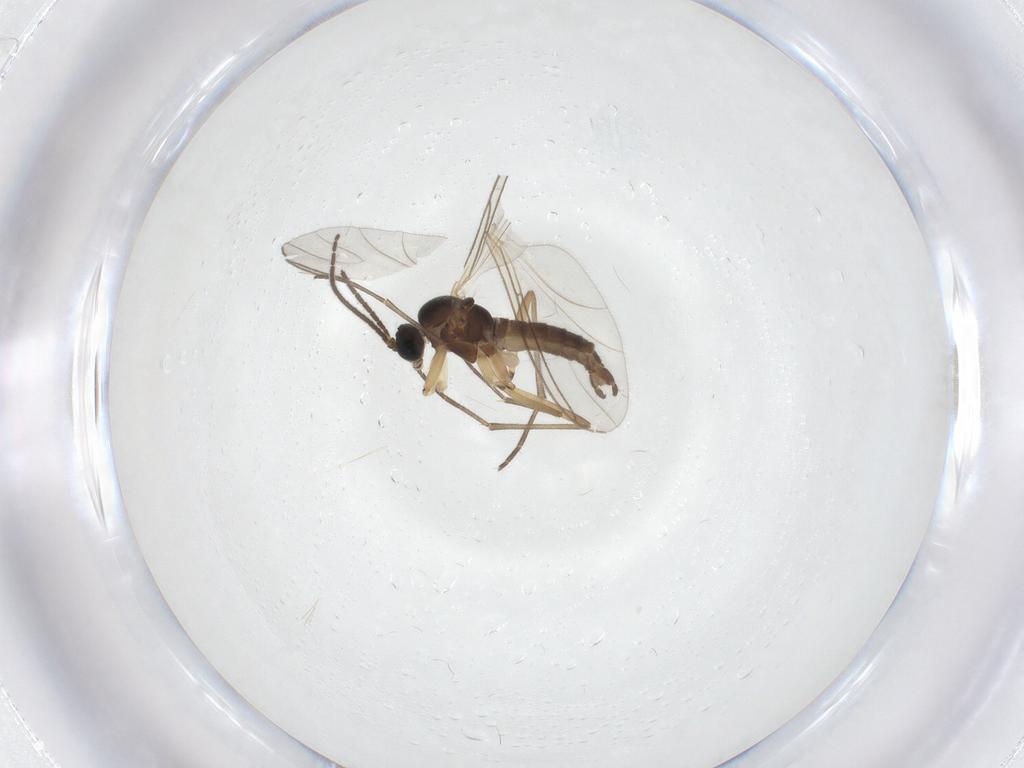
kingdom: Animalia
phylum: Arthropoda
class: Insecta
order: Diptera
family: Sciaridae
